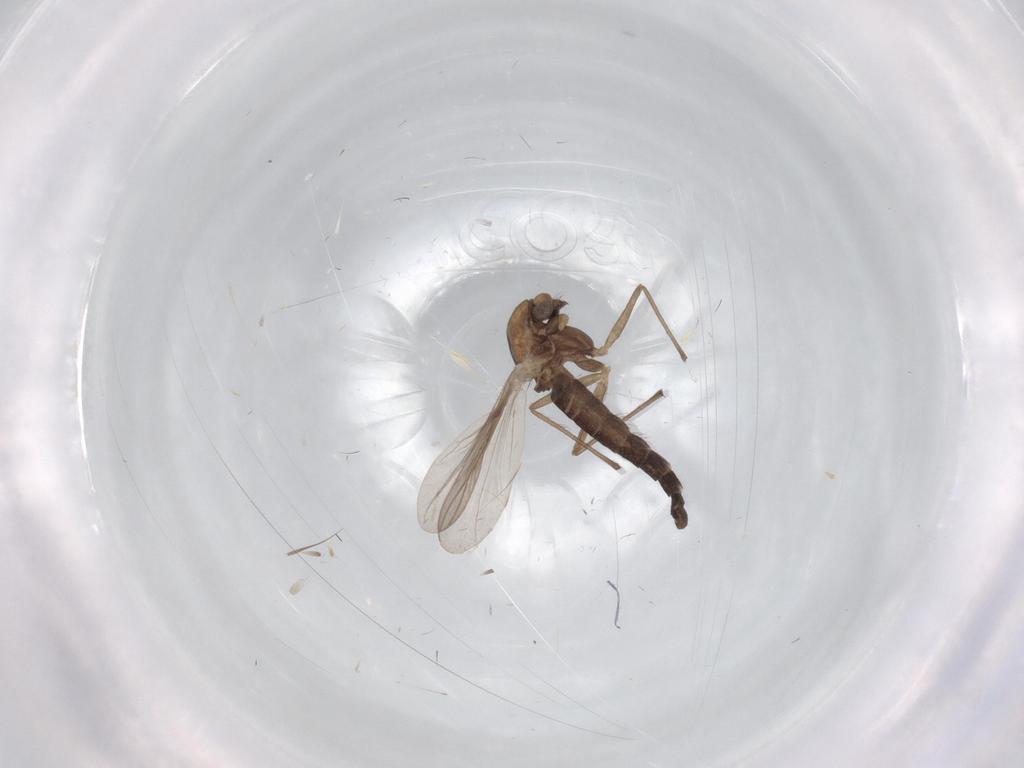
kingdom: Animalia
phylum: Arthropoda
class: Insecta
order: Diptera
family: Chironomidae
